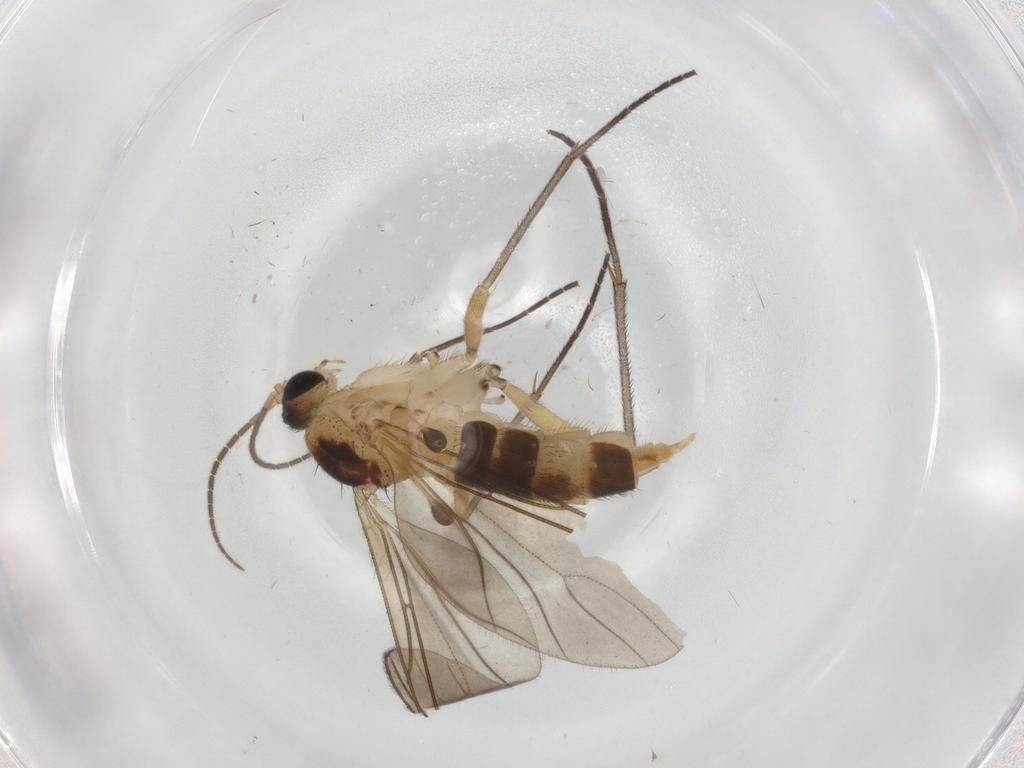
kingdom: Animalia
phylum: Arthropoda
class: Insecta
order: Diptera
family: Sciaridae
